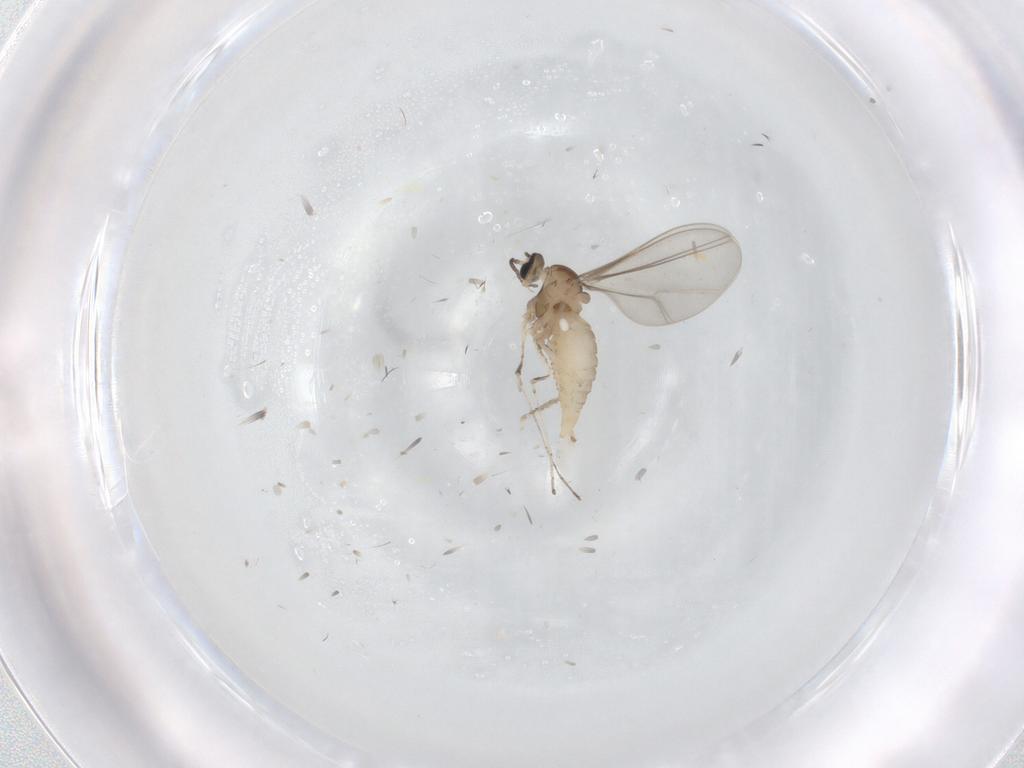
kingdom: Animalia
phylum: Arthropoda
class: Insecta
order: Diptera
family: Cecidomyiidae
